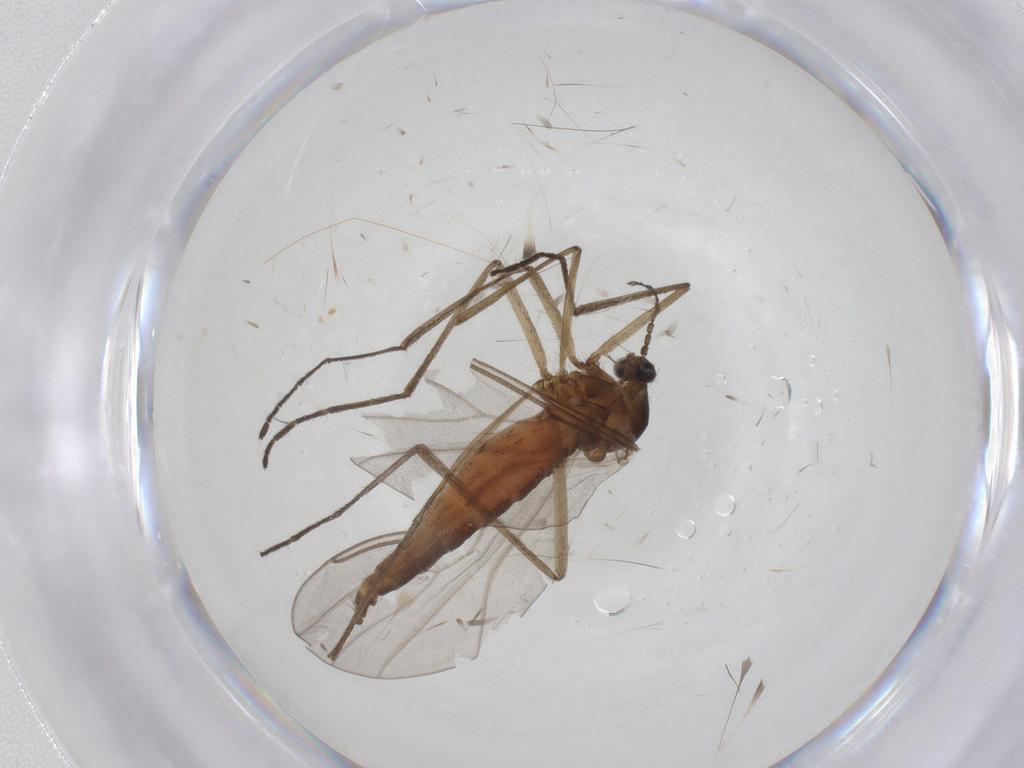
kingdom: Animalia
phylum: Arthropoda
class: Insecta
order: Diptera
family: Cecidomyiidae
